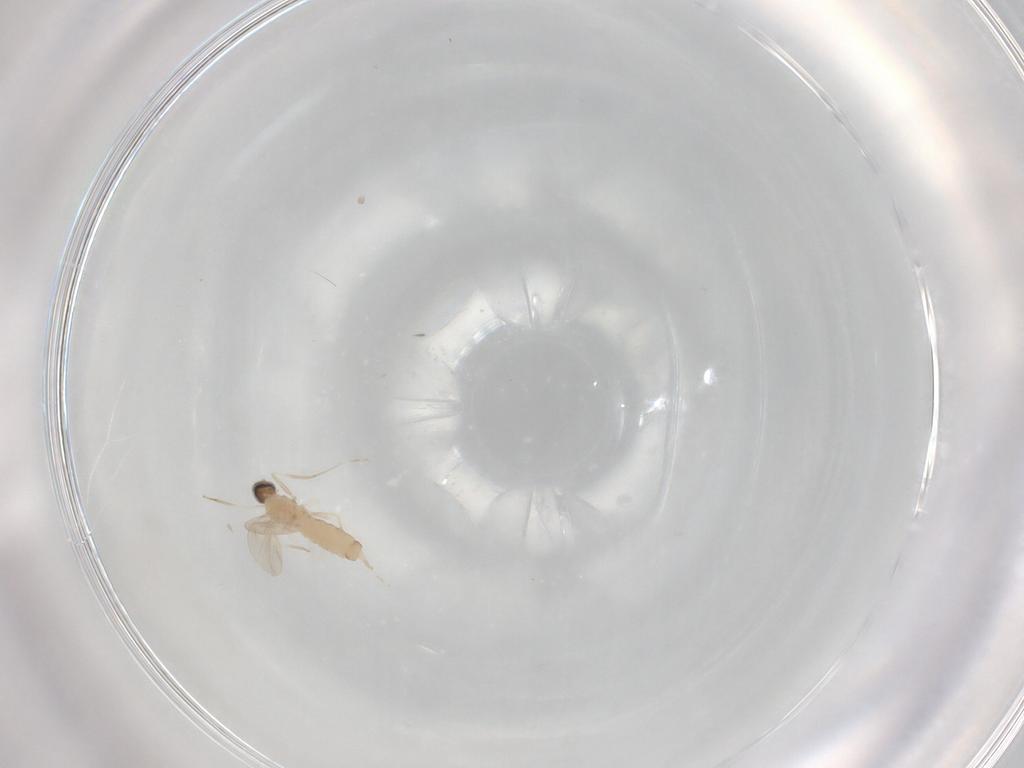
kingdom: Animalia
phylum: Arthropoda
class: Insecta
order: Diptera
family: Cecidomyiidae
